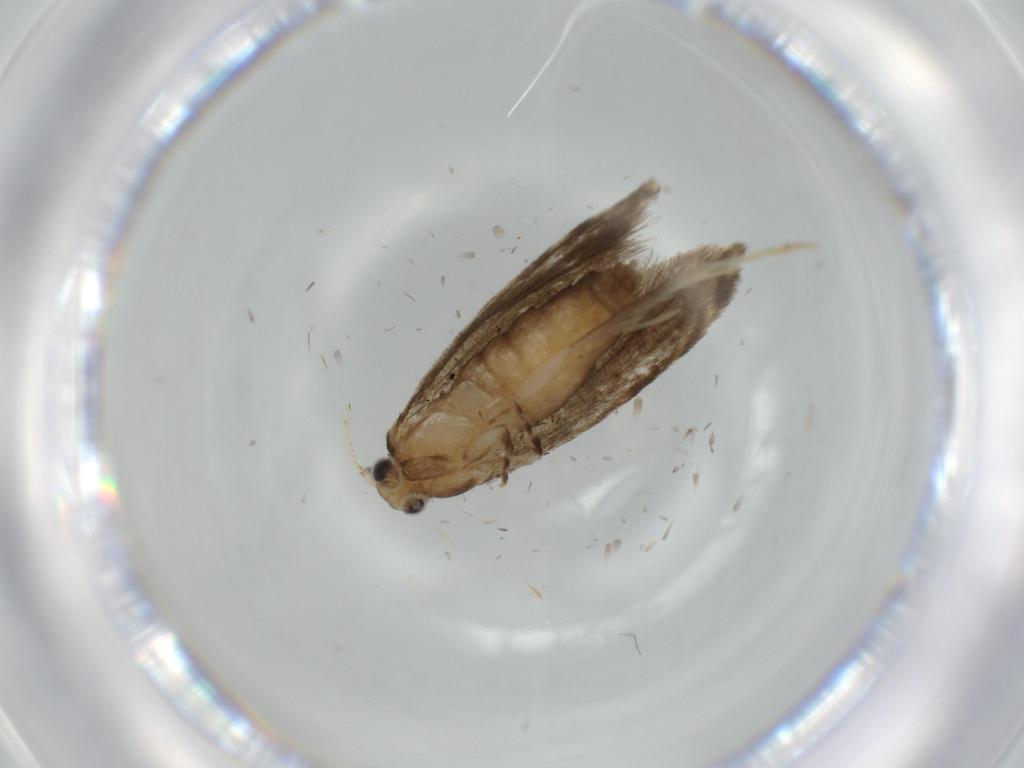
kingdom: Animalia
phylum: Arthropoda
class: Insecta
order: Lepidoptera
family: Tineidae
